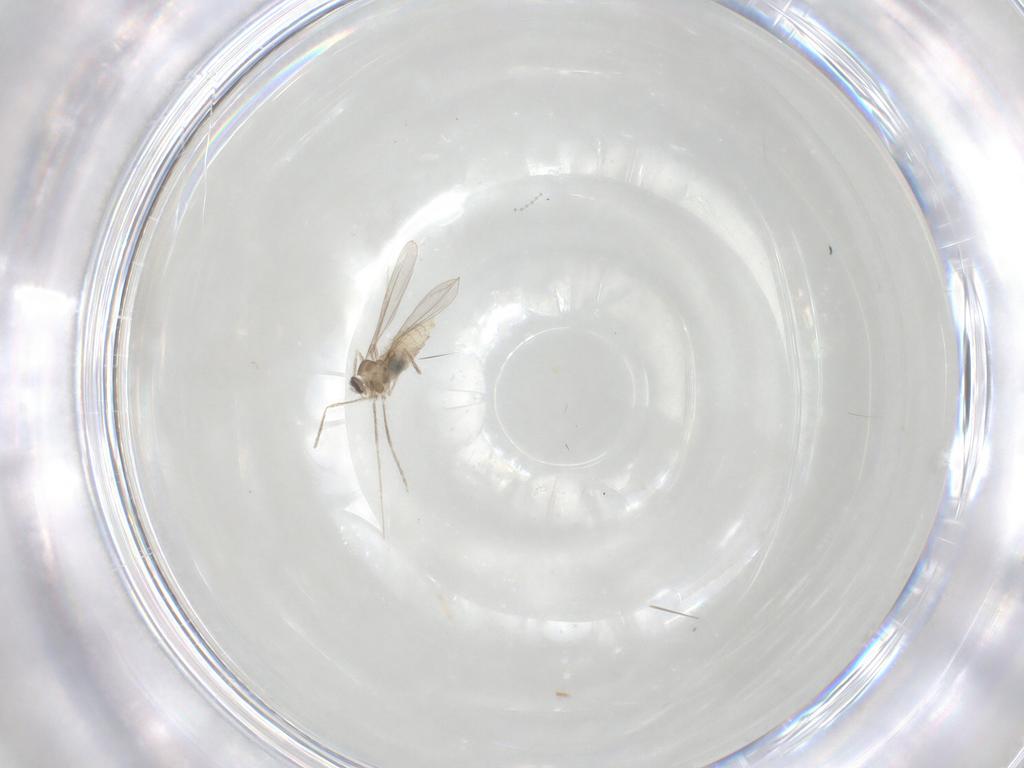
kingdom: Animalia
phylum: Arthropoda
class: Insecta
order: Diptera
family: Cecidomyiidae
